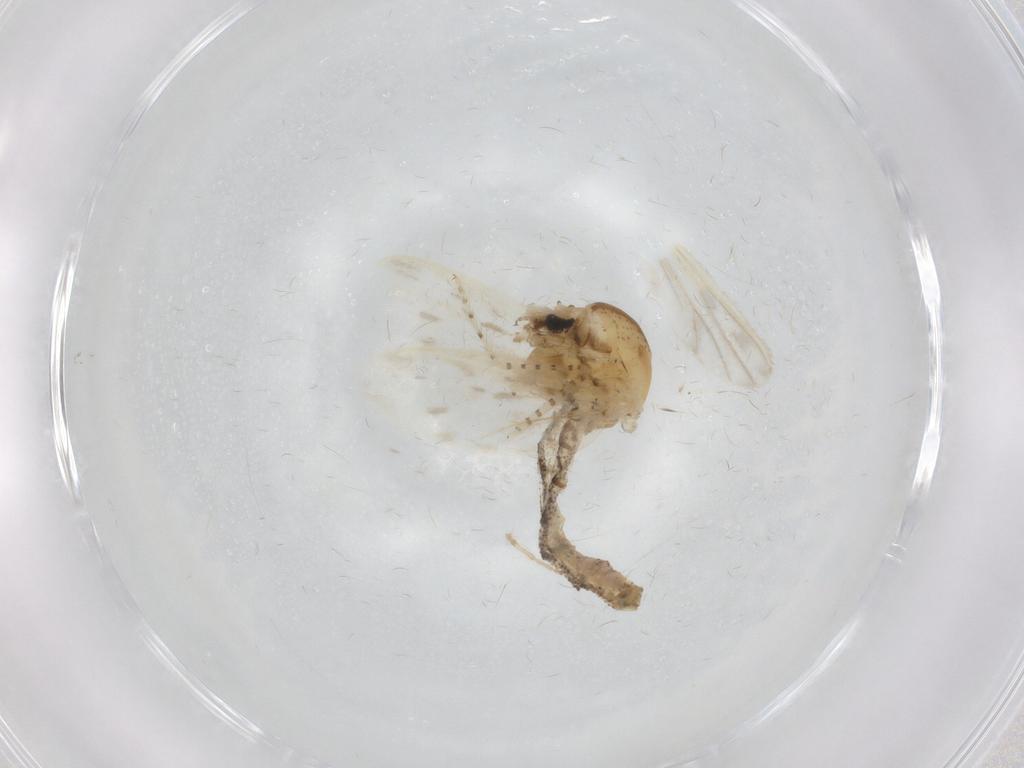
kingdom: Animalia
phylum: Arthropoda
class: Insecta
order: Diptera
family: Chaoboridae
